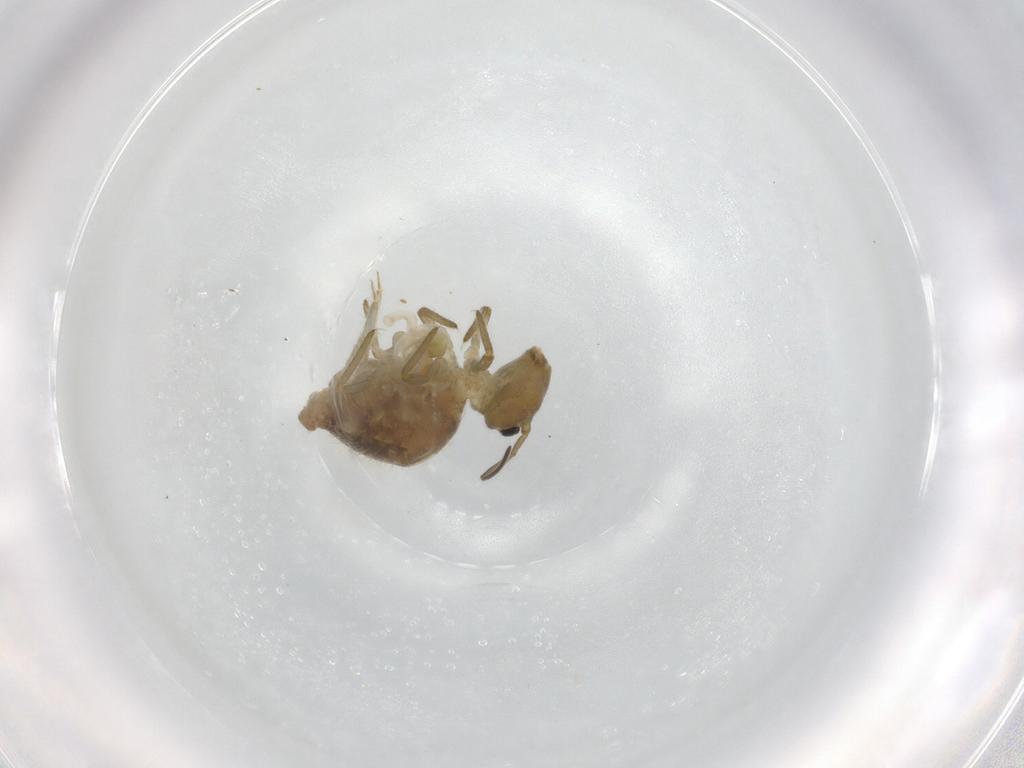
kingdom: Animalia
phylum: Arthropoda
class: Collembola
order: Symphypleona
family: Sminthuridae
